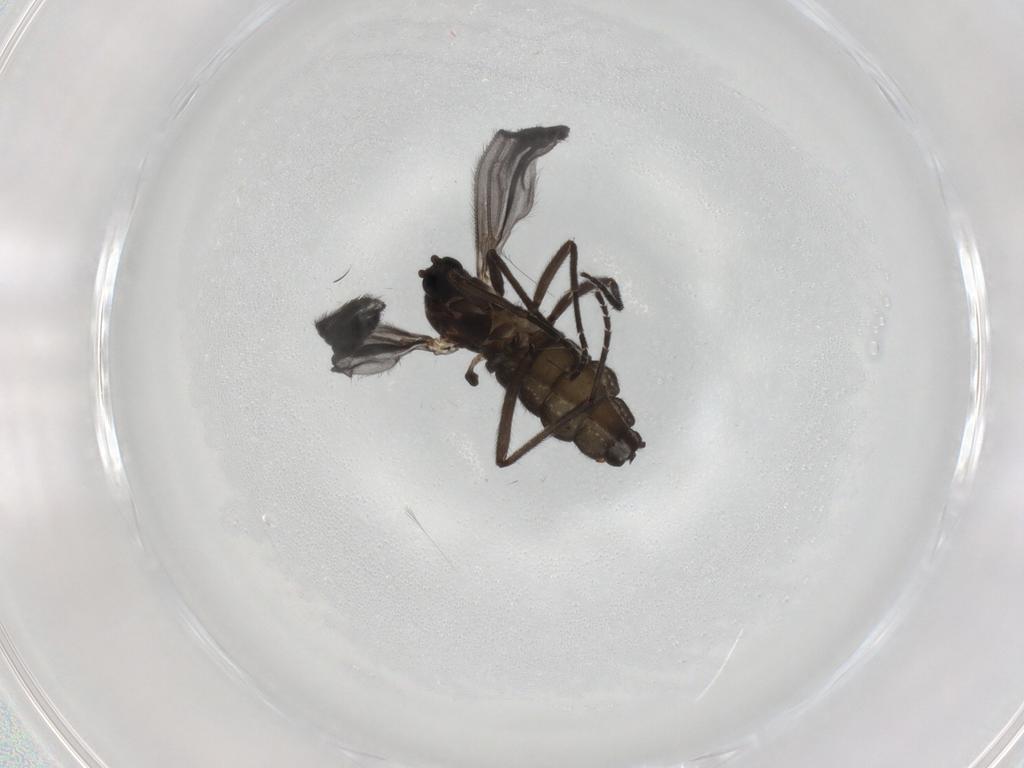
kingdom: Animalia
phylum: Arthropoda
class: Insecta
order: Diptera
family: Sciaridae
